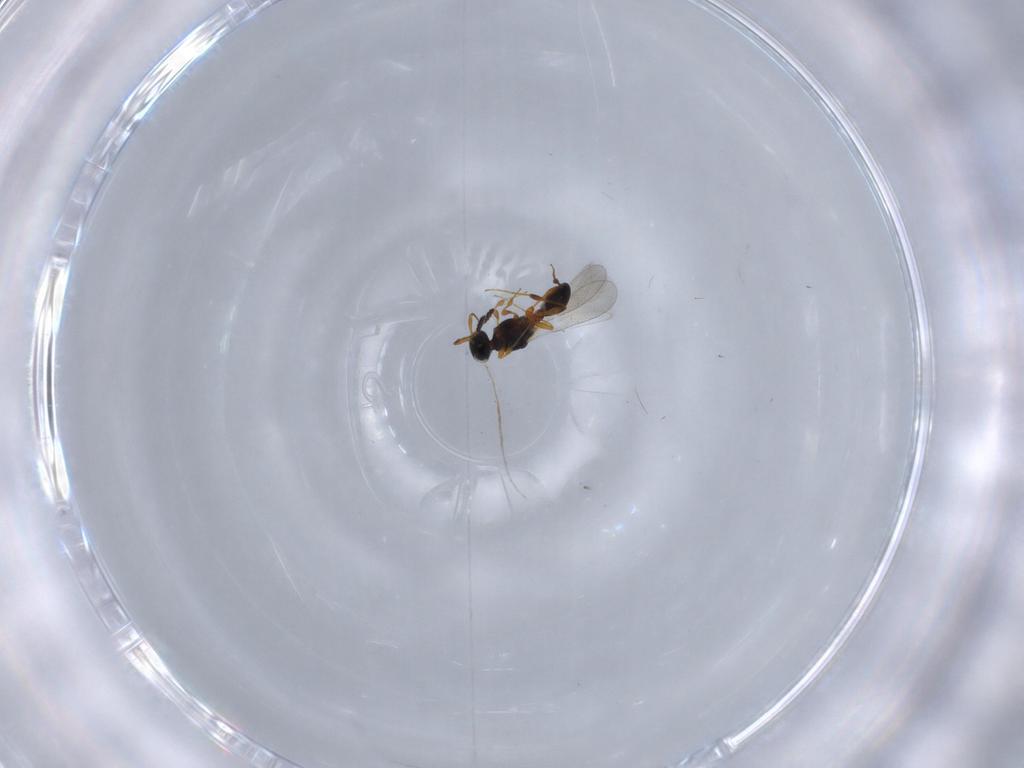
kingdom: Animalia
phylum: Arthropoda
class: Insecta
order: Hymenoptera
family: Platygastridae
